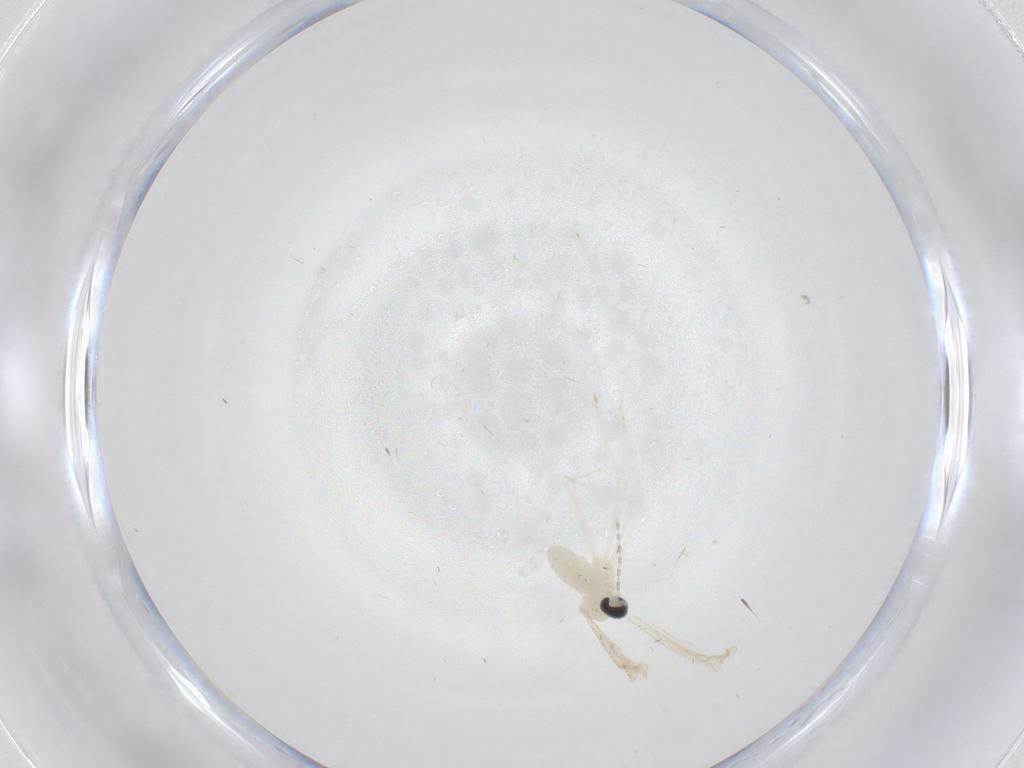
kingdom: Animalia
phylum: Arthropoda
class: Insecta
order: Diptera
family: Cecidomyiidae
